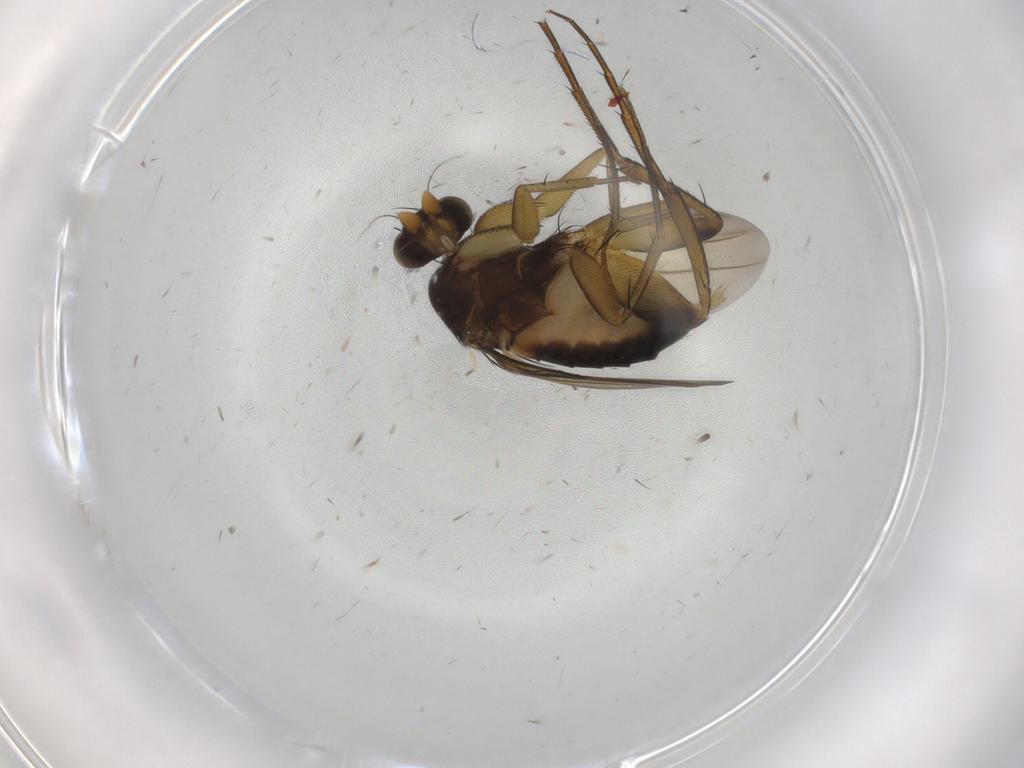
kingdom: Animalia
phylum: Arthropoda
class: Insecta
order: Diptera
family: Phoridae
